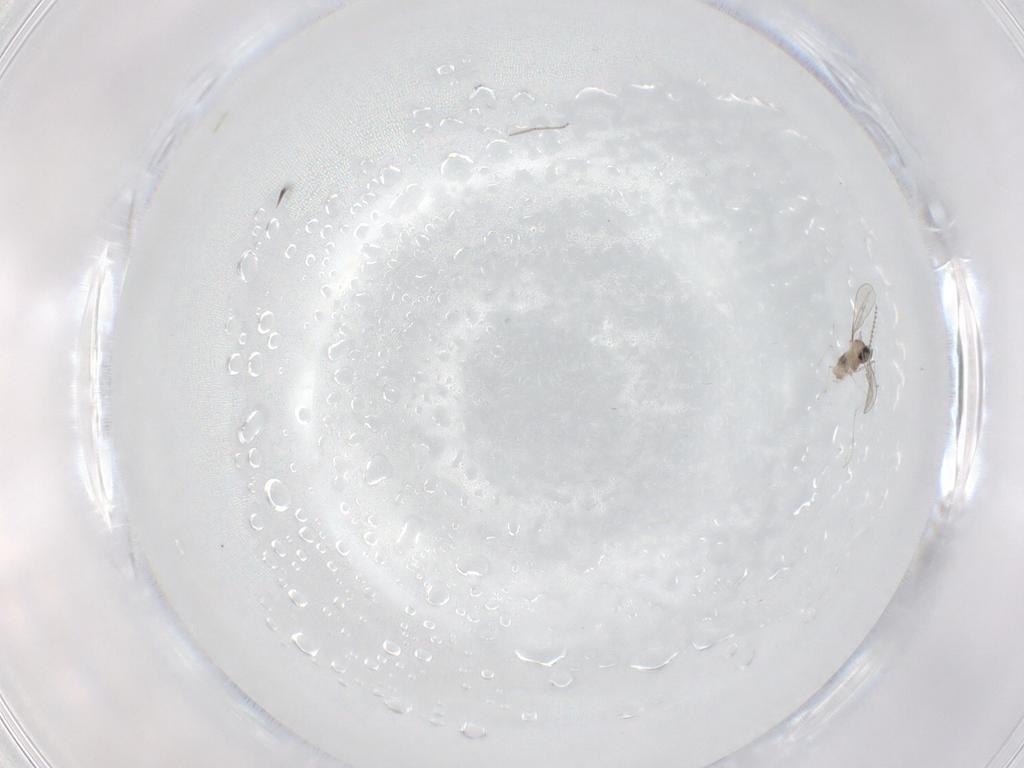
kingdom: Animalia
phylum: Arthropoda
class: Insecta
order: Diptera
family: Chironomidae
